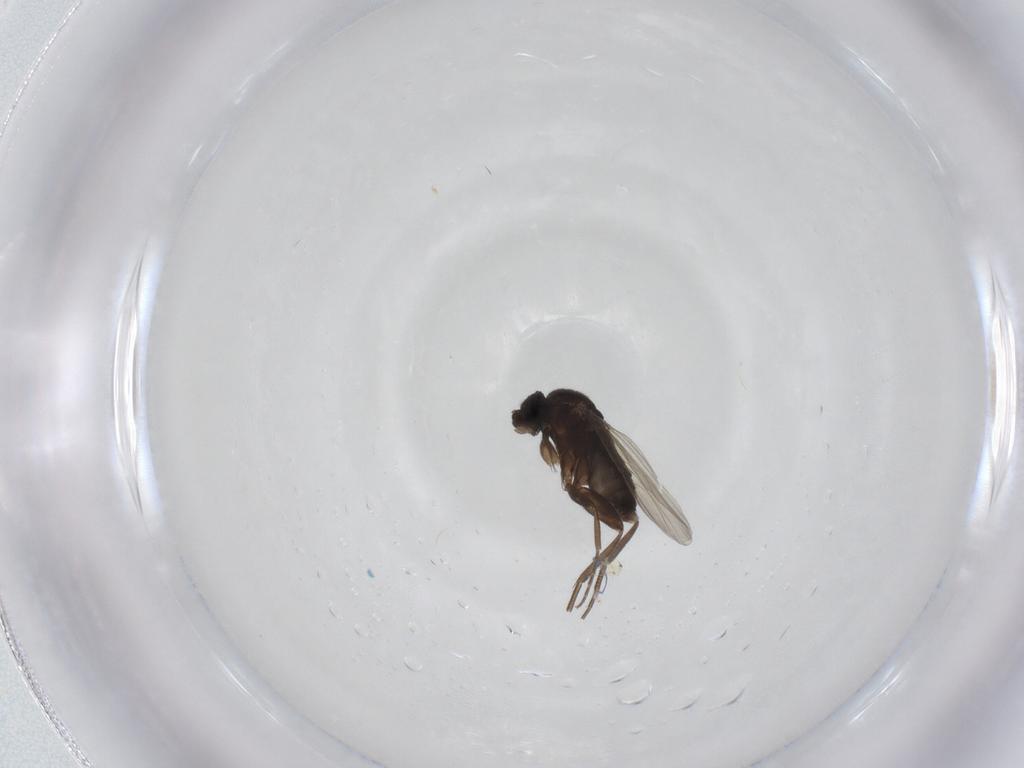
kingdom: Animalia
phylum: Arthropoda
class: Insecta
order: Diptera
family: Phoridae
